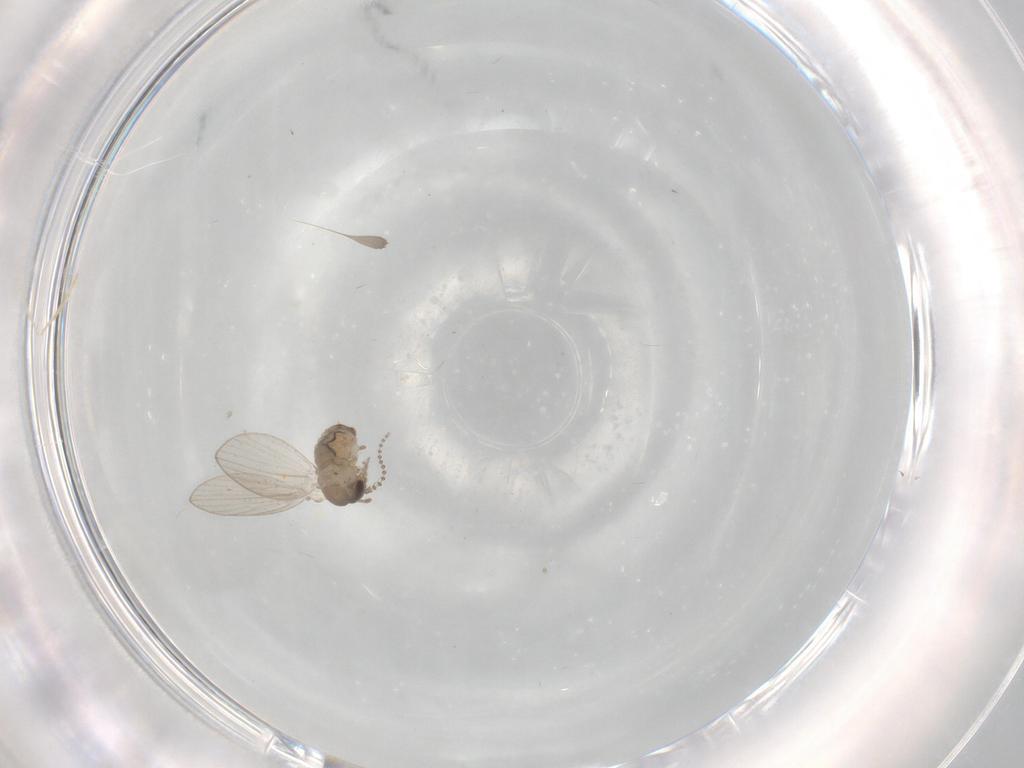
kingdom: Animalia
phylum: Arthropoda
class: Insecta
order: Diptera
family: Psychodidae
